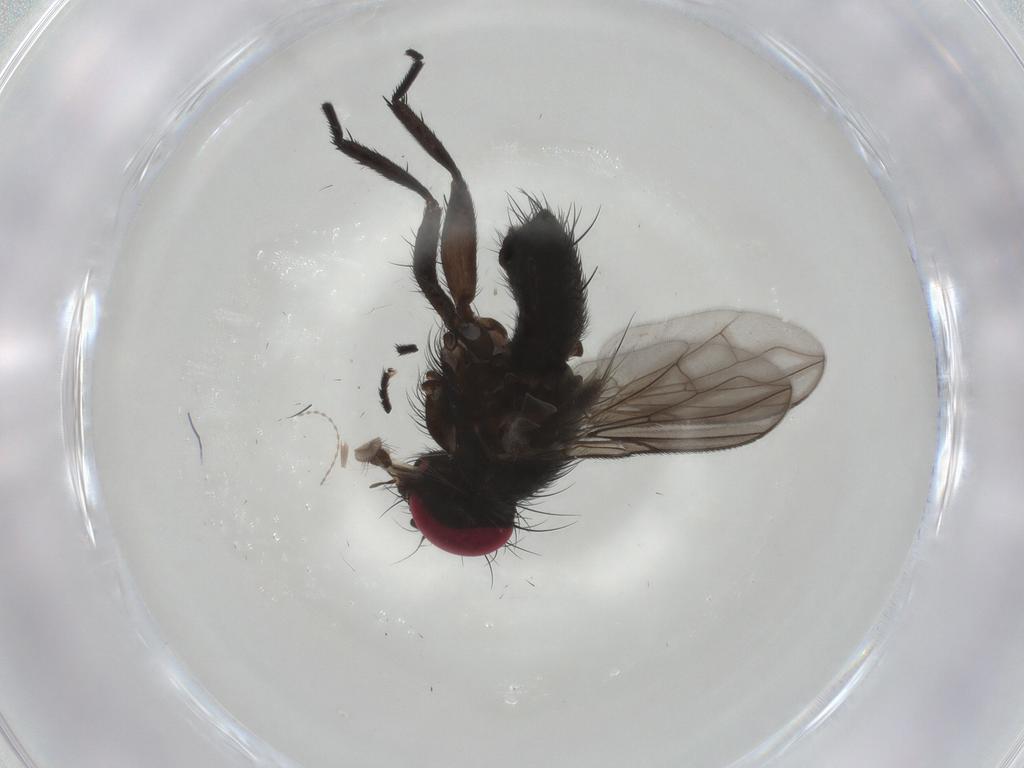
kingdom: Animalia
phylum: Arthropoda
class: Insecta
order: Diptera
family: Calliphoridae
